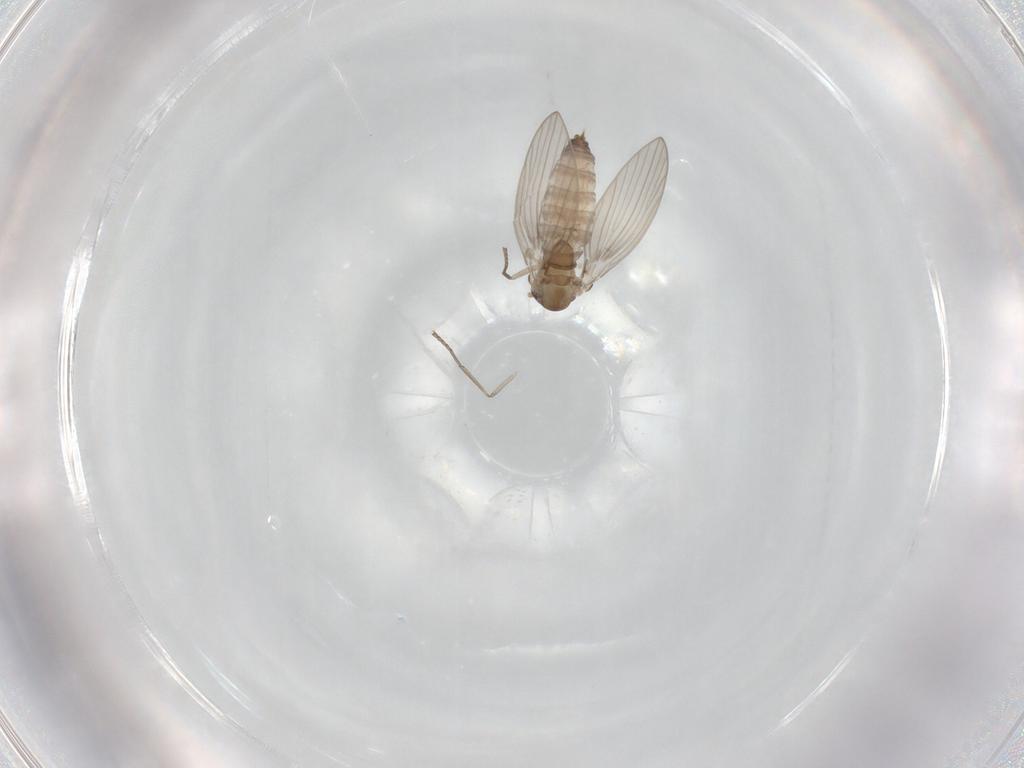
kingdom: Animalia
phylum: Arthropoda
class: Insecta
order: Diptera
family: Psychodidae
